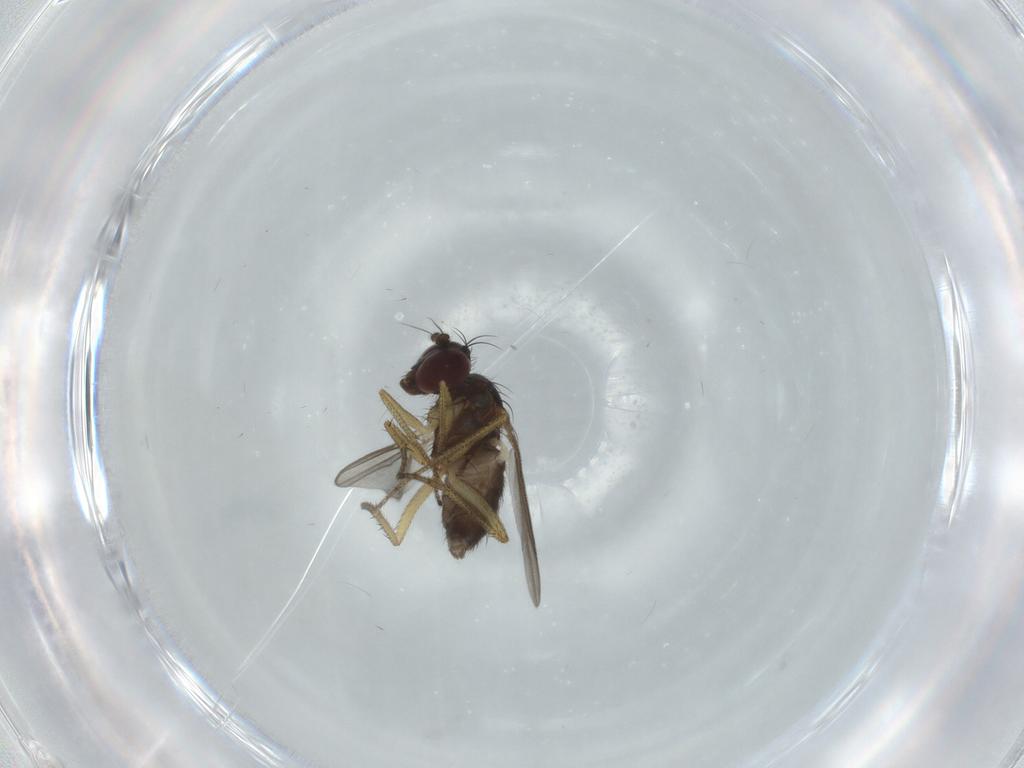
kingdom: Animalia
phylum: Arthropoda
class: Insecta
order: Diptera
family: Dolichopodidae
